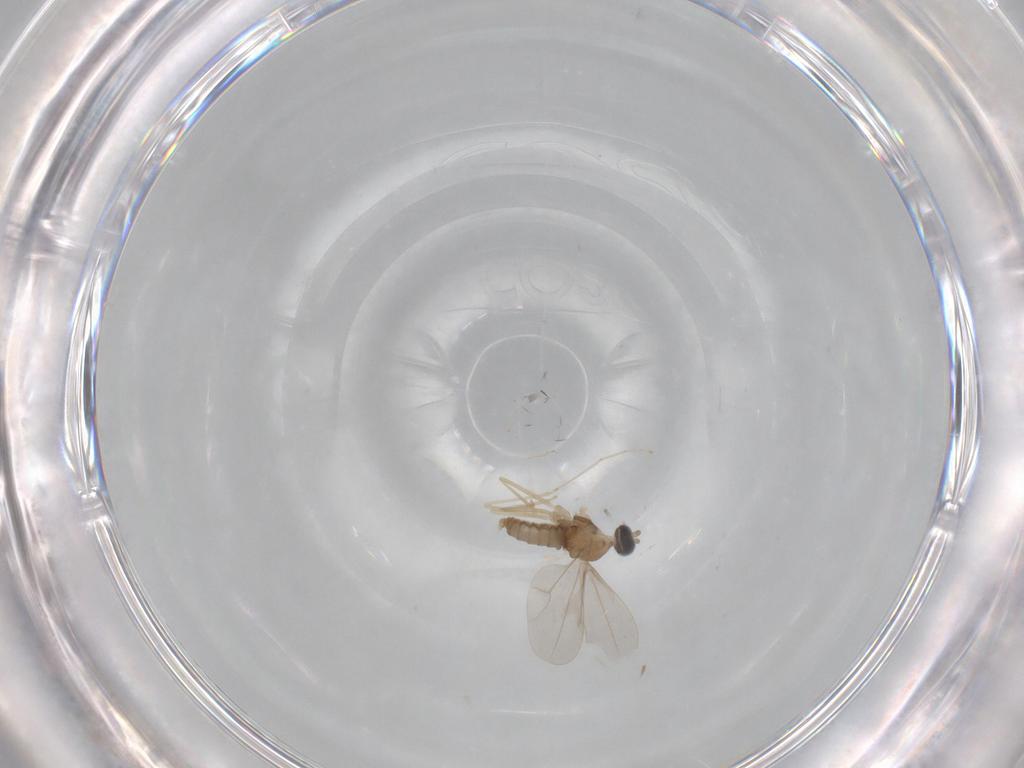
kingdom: Animalia
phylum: Arthropoda
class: Insecta
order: Diptera
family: Cecidomyiidae
